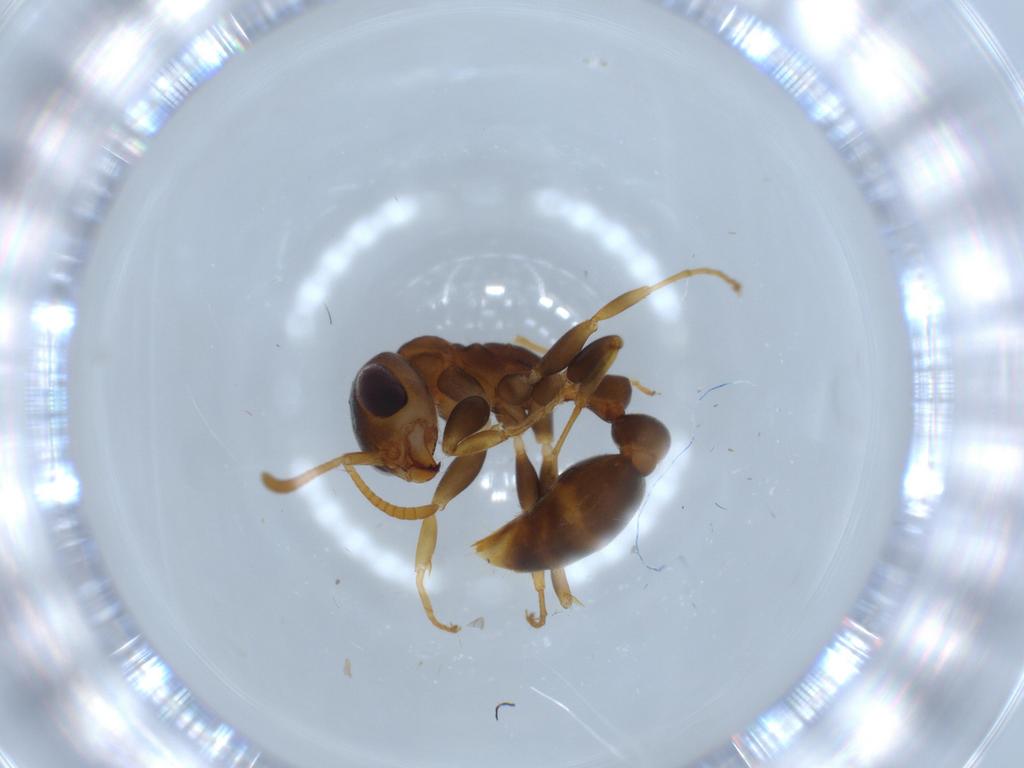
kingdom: Animalia
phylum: Arthropoda
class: Insecta
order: Hymenoptera
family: Formicidae
